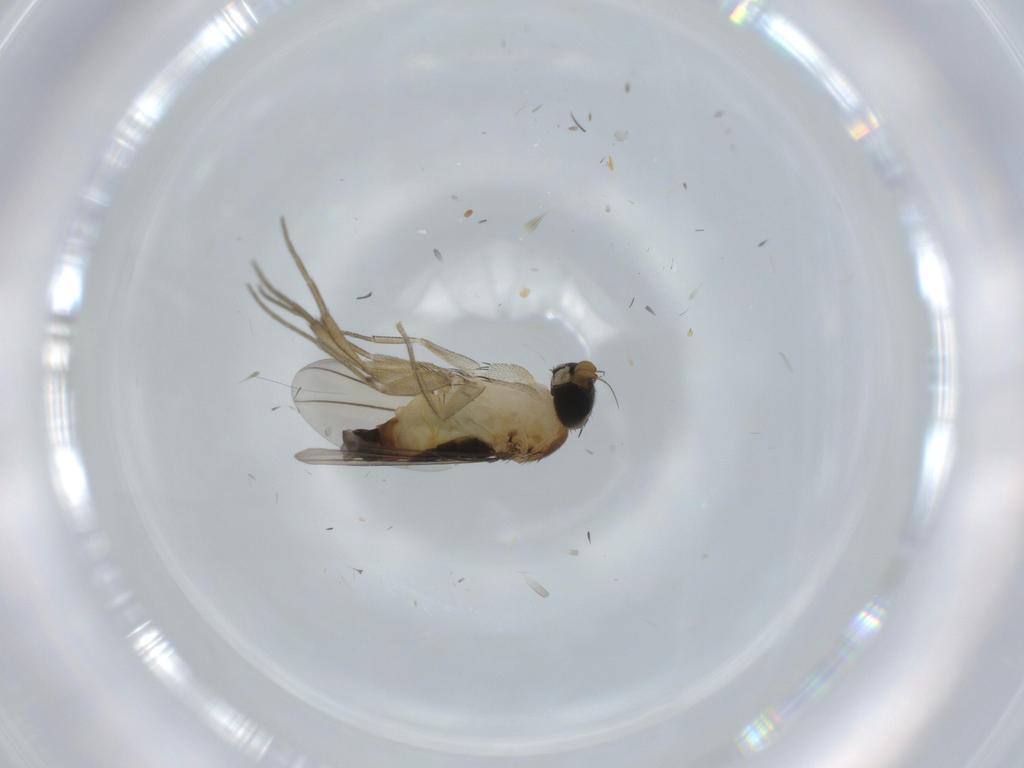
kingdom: Animalia
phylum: Arthropoda
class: Insecta
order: Diptera
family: Phoridae
